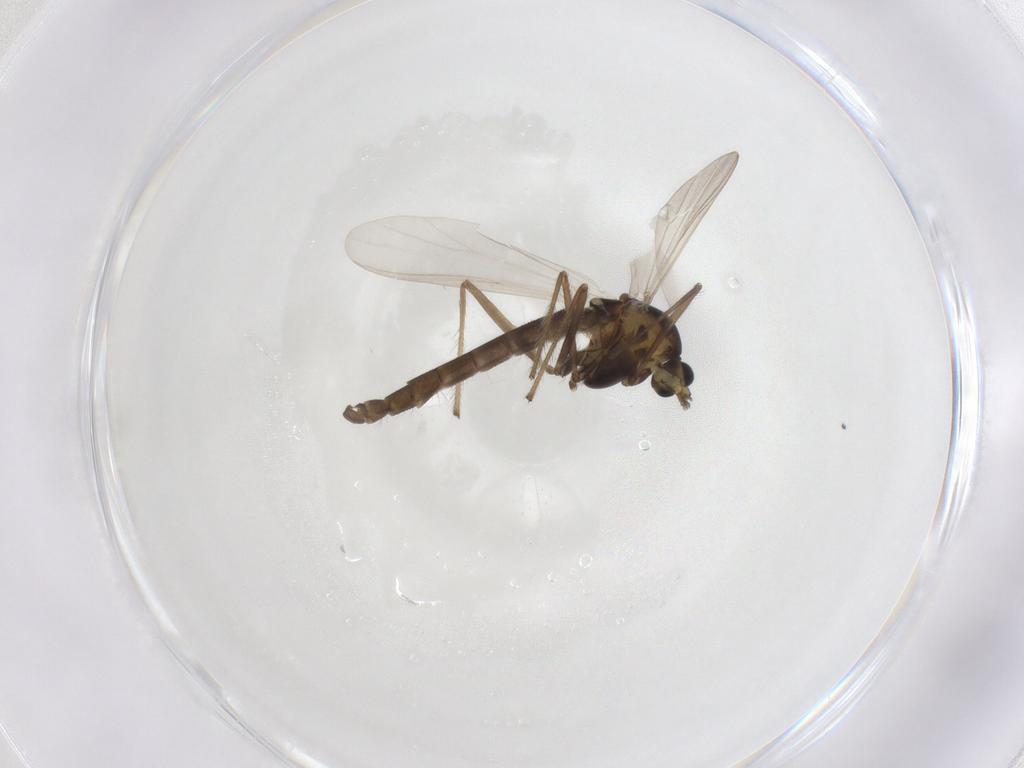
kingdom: Animalia
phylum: Arthropoda
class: Insecta
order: Diptera
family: Chironomidae
